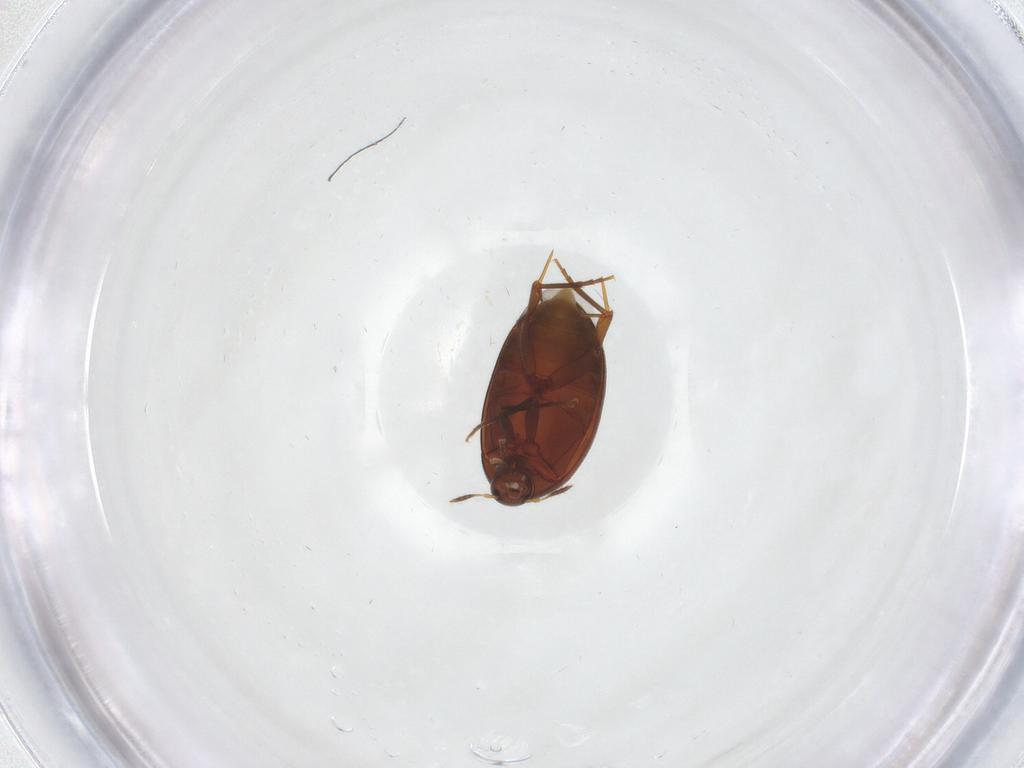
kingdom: Animalia
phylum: Arthropoda
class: Insecta
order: Coleoptera
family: Melandryidae
